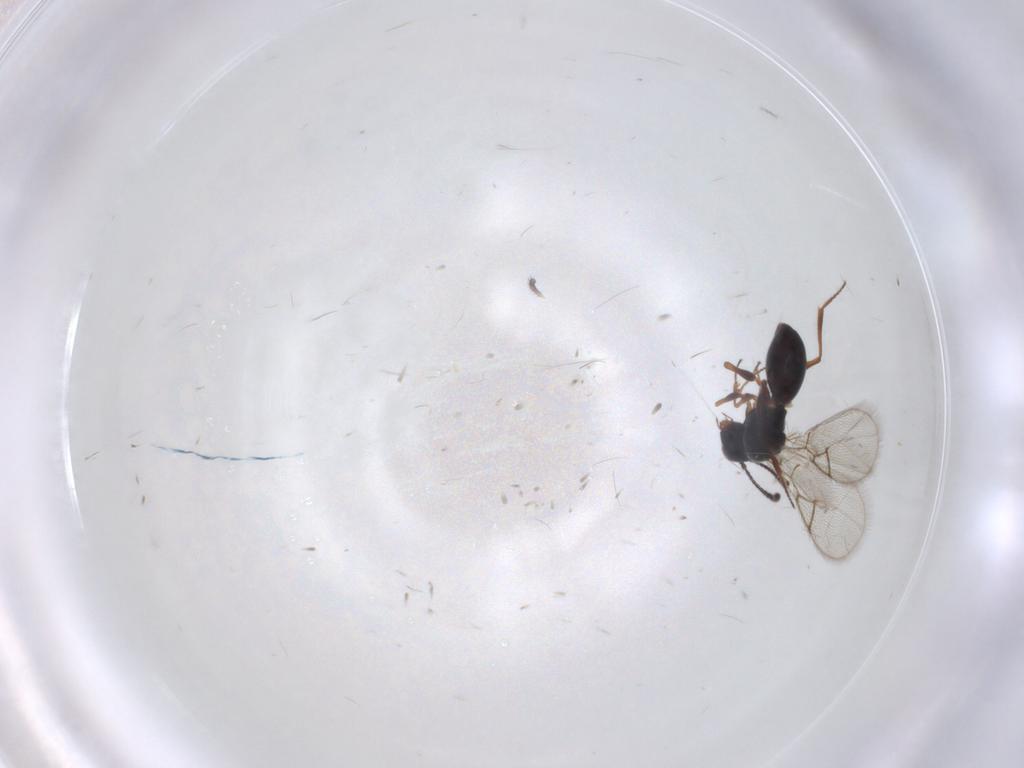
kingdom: Animalia
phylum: Arthropoda
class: Insecta
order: Hymenoptera
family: Figitidae
